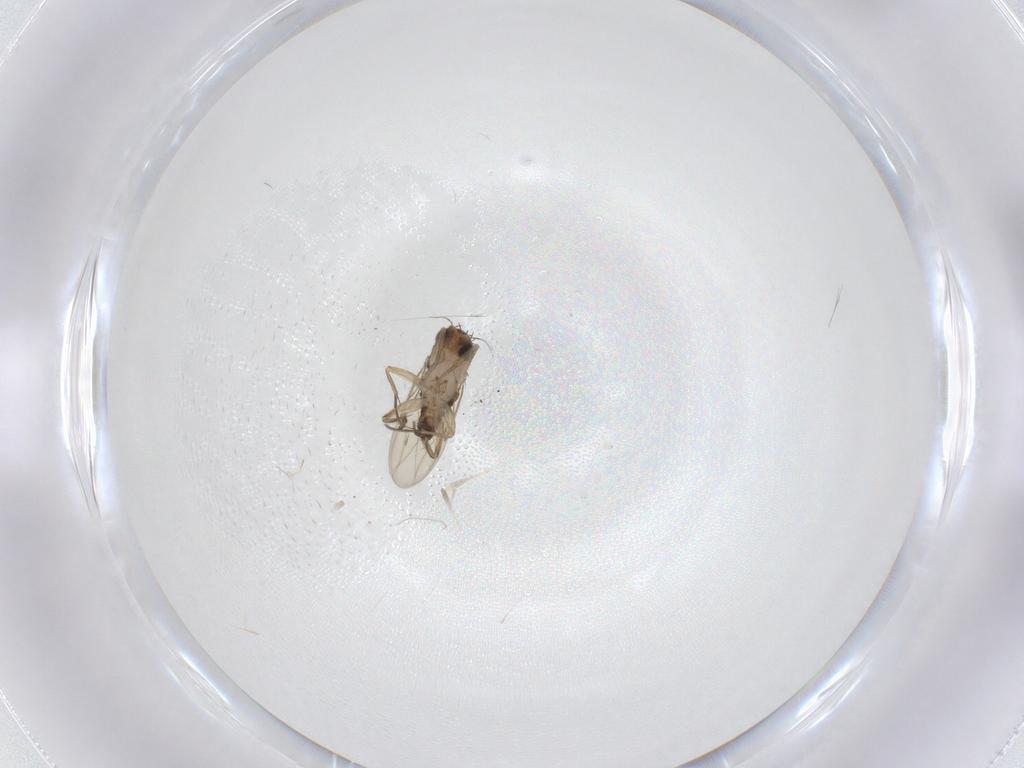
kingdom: Animalia
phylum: Arthropoda
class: Insecta
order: Diptera
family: Phoridae
